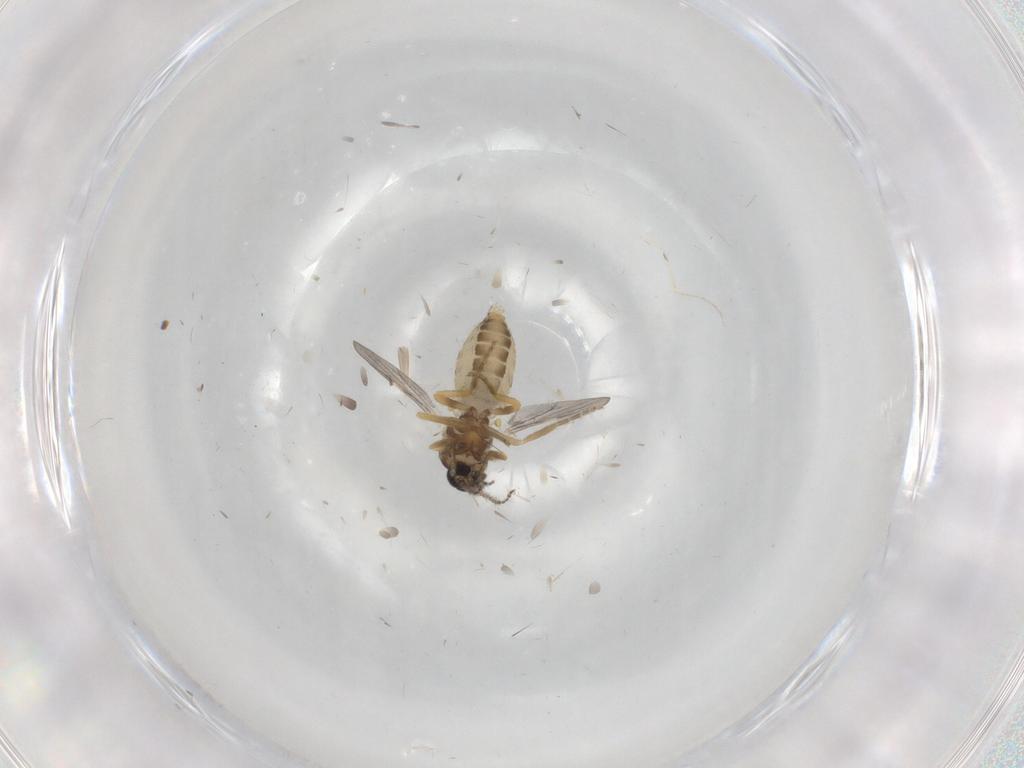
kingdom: Animalia
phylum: Arthropoda
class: Insecta
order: Diptera
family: Ceratopogonidae
